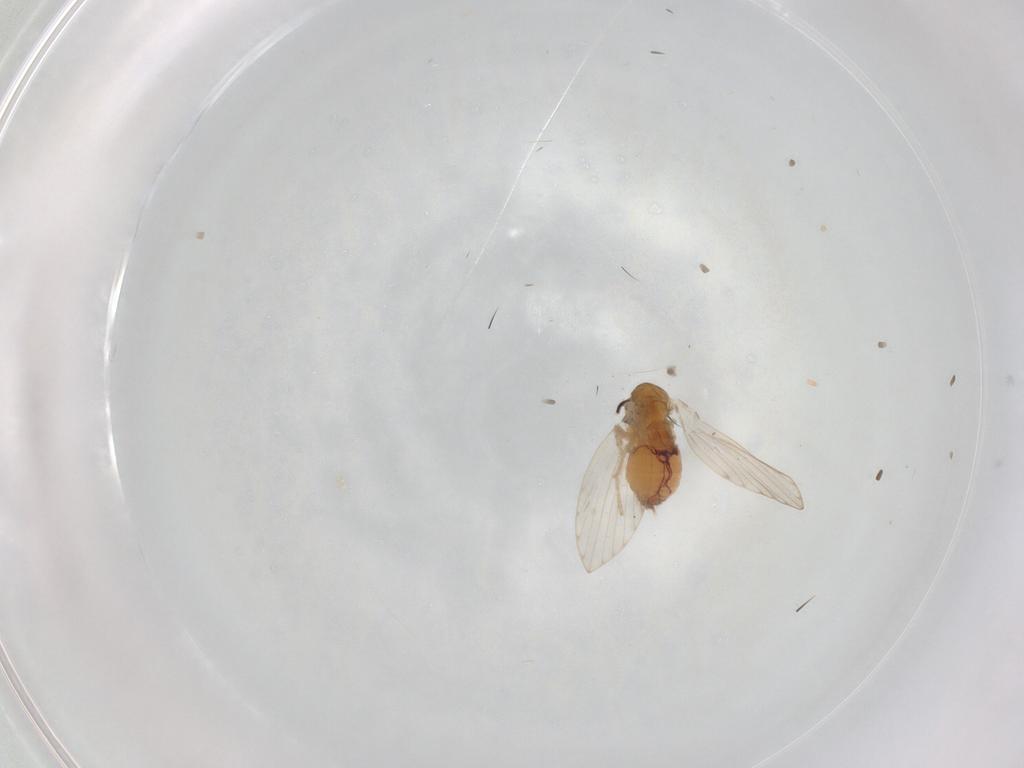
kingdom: Animalia
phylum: Arthropoda
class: Insecta
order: Diptera
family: Psychodidae
